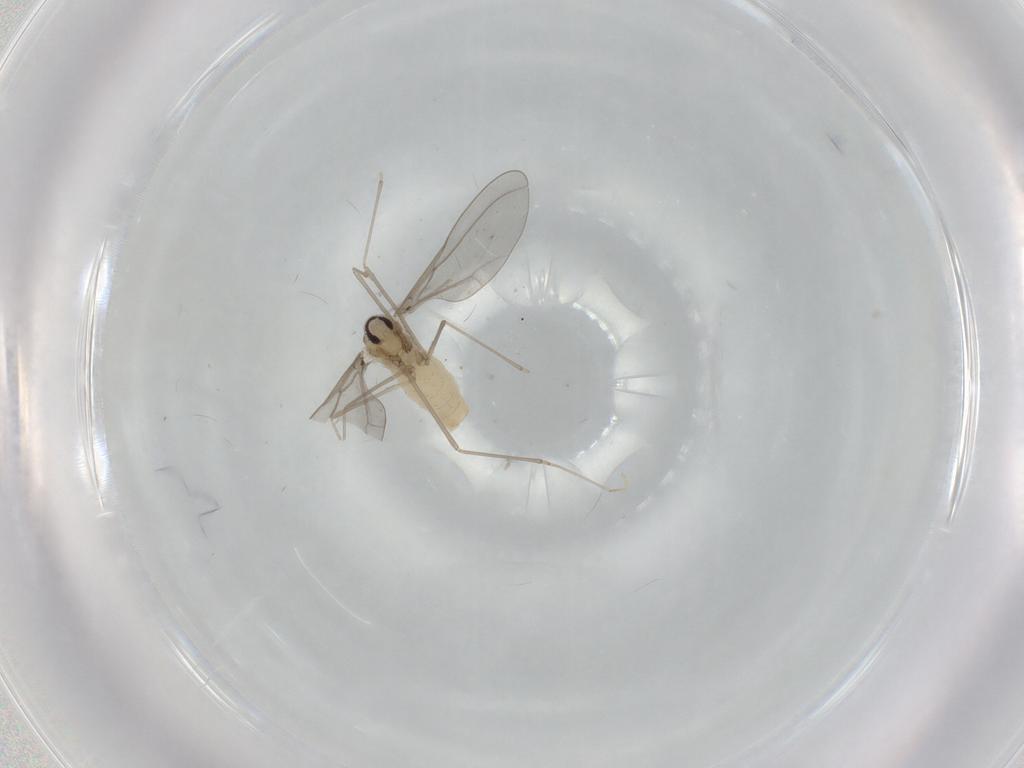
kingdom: Animalia
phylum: Arthropoda
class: Insecta
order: Diptera
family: Cecidomyiidae
